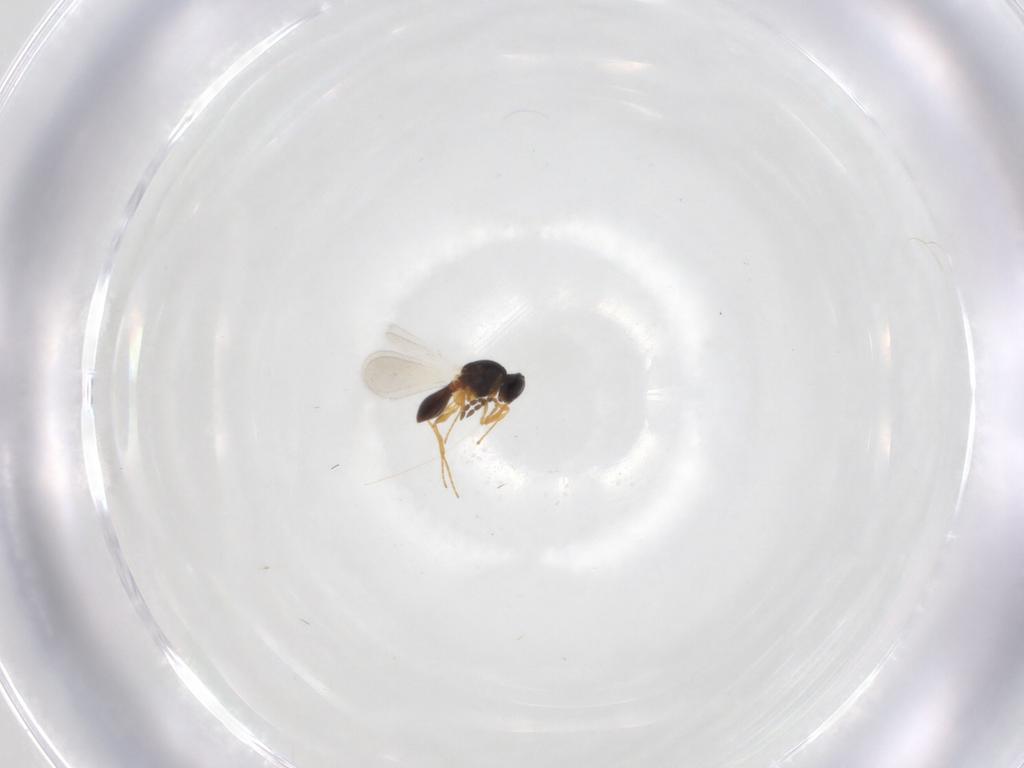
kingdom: Animalia
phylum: Arthropoda
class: Insecta
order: Hymenoptera
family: Platygastridae
